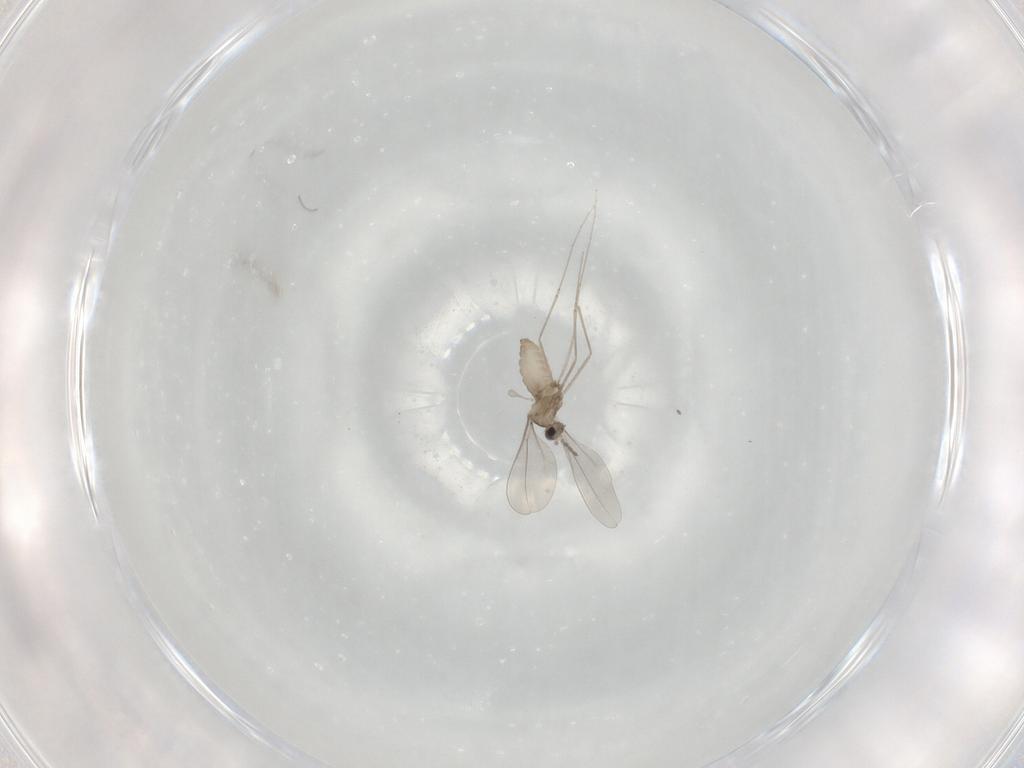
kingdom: Animalia
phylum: Arthropoda
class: Insecta
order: Diptera
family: Cecidomyiidae
